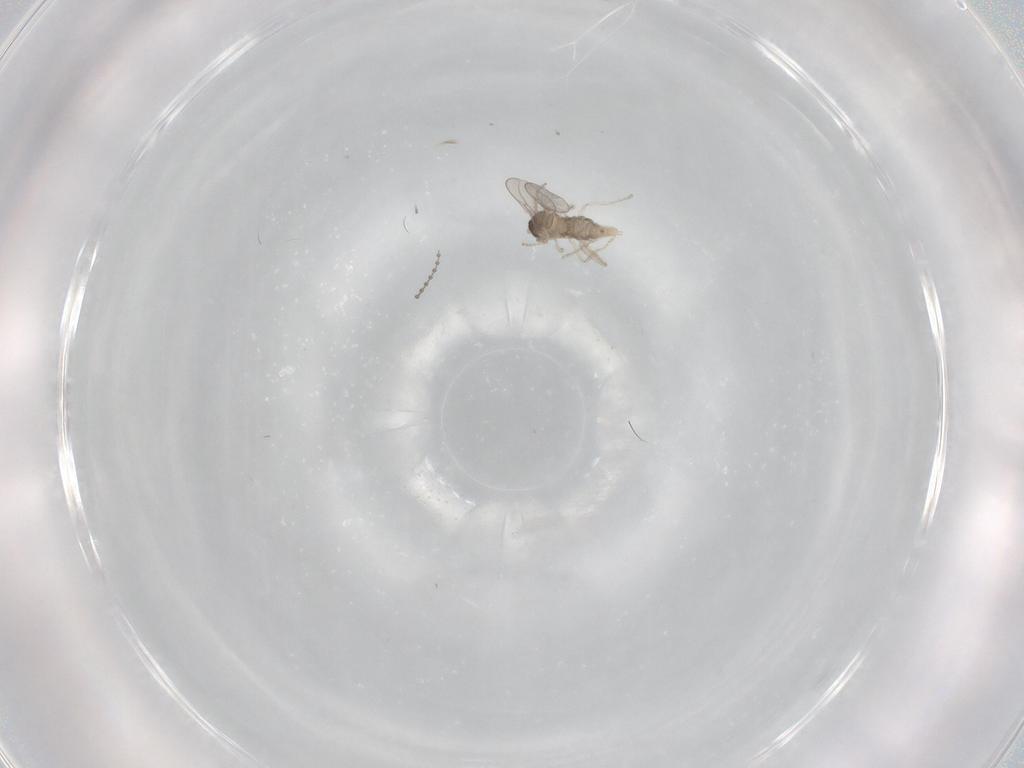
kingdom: Animalia
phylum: Arthropoda
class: Insecta
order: Diptera
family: Cecidomyiidae
